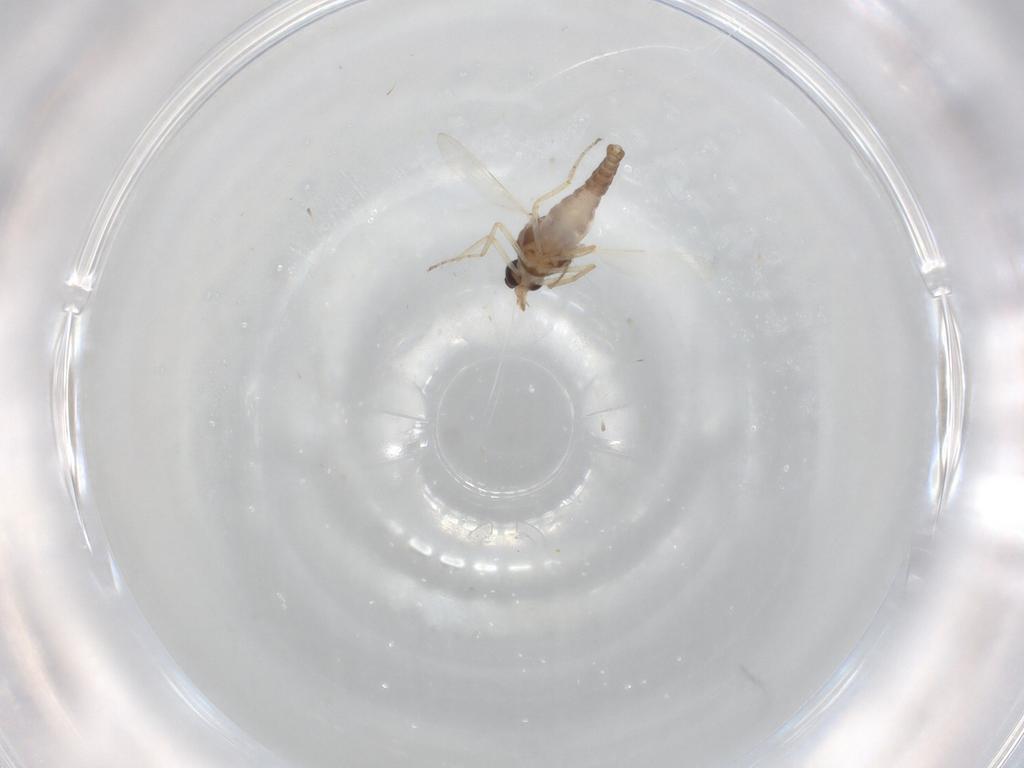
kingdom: Animalia
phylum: Arthropoda
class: Insecta
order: Diptera
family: Ceratopogonidae
